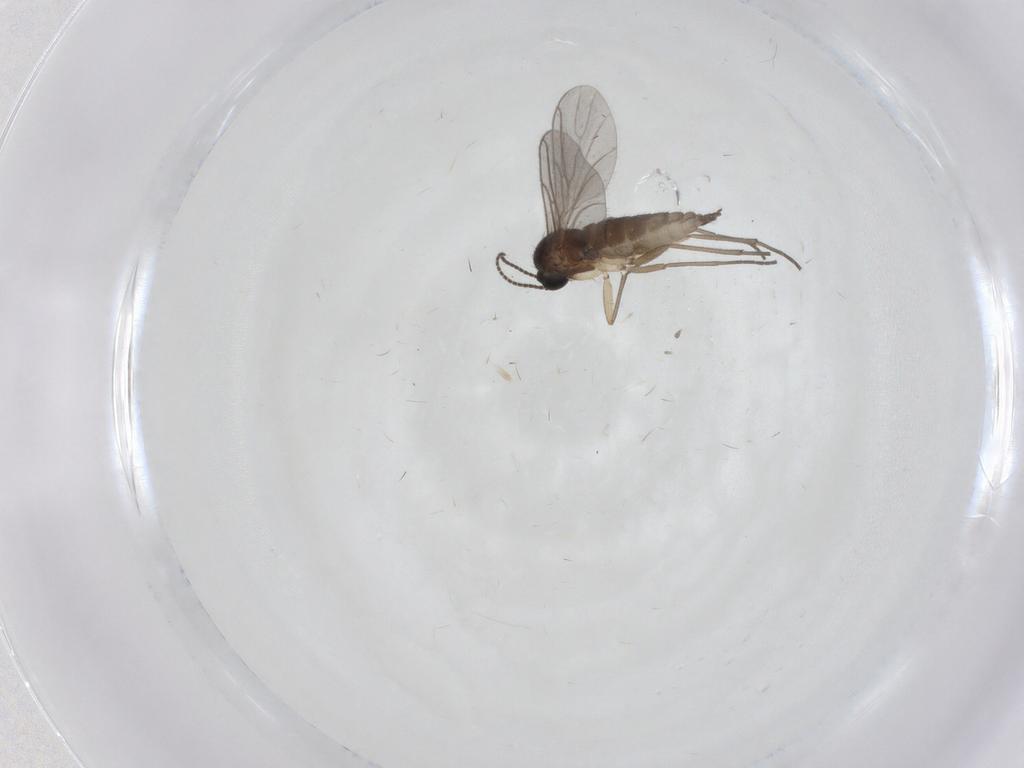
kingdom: Animalia
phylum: Arthropoda
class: Insecta
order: Diptera
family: Sciaridae
